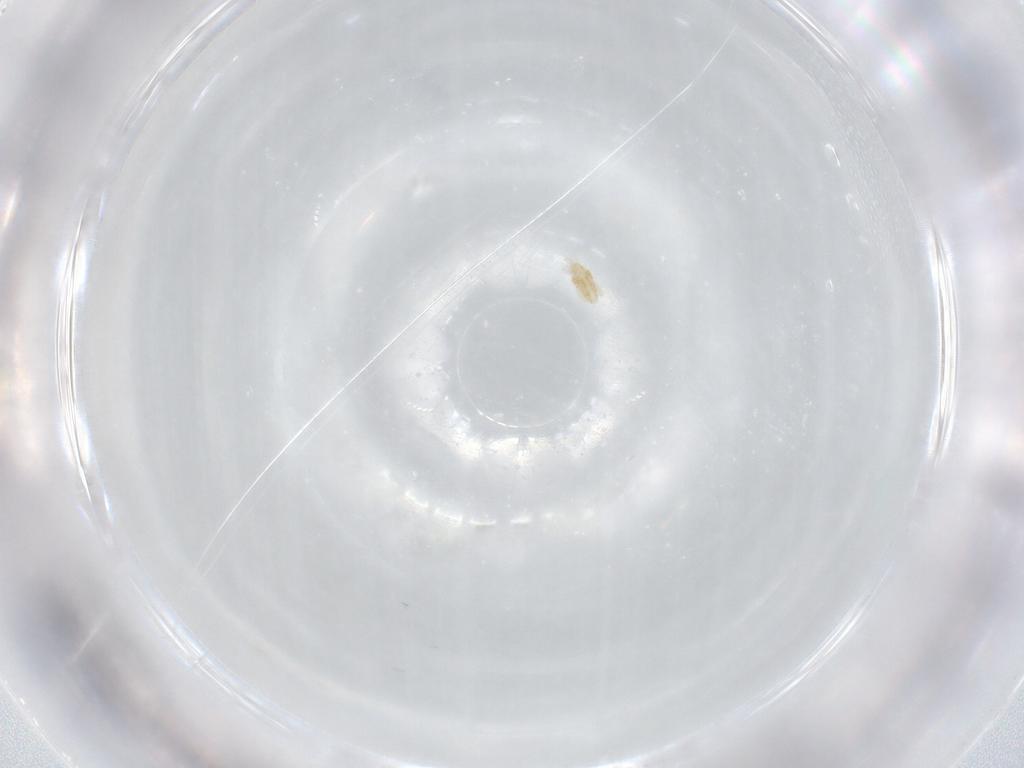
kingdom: Animalia
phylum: Arthropoda
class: Arachnida
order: Trombidiformes
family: Eupodidae
